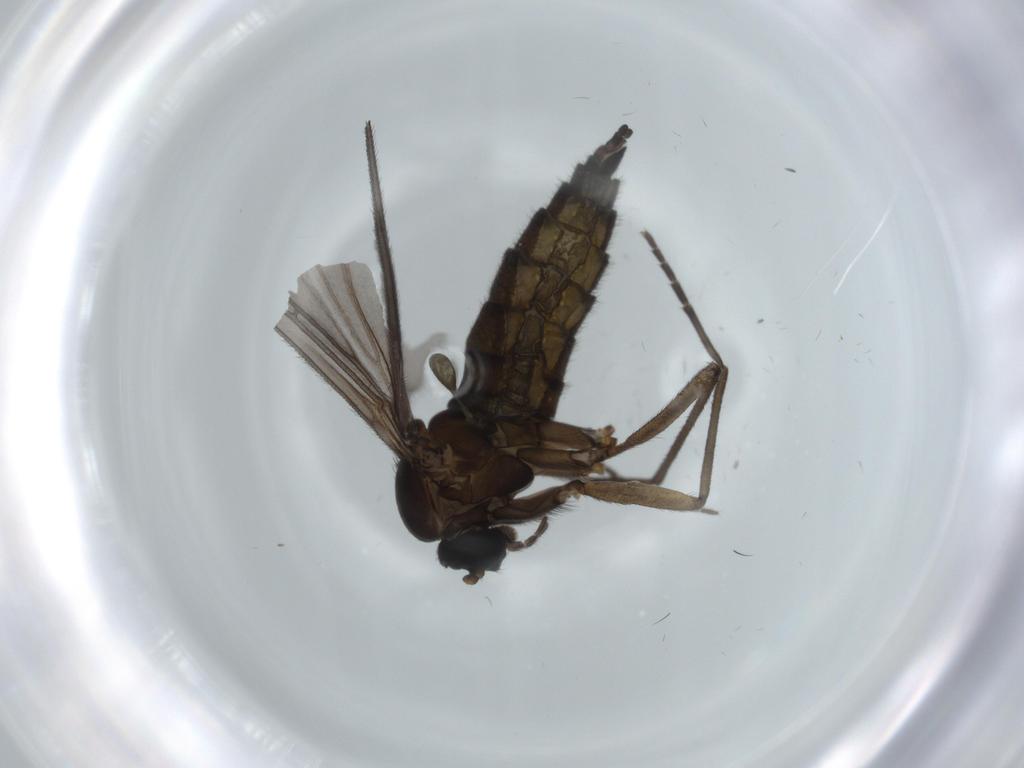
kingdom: Animalia
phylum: Arthropoda
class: Insecta
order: Diptera
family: Sciaridae
